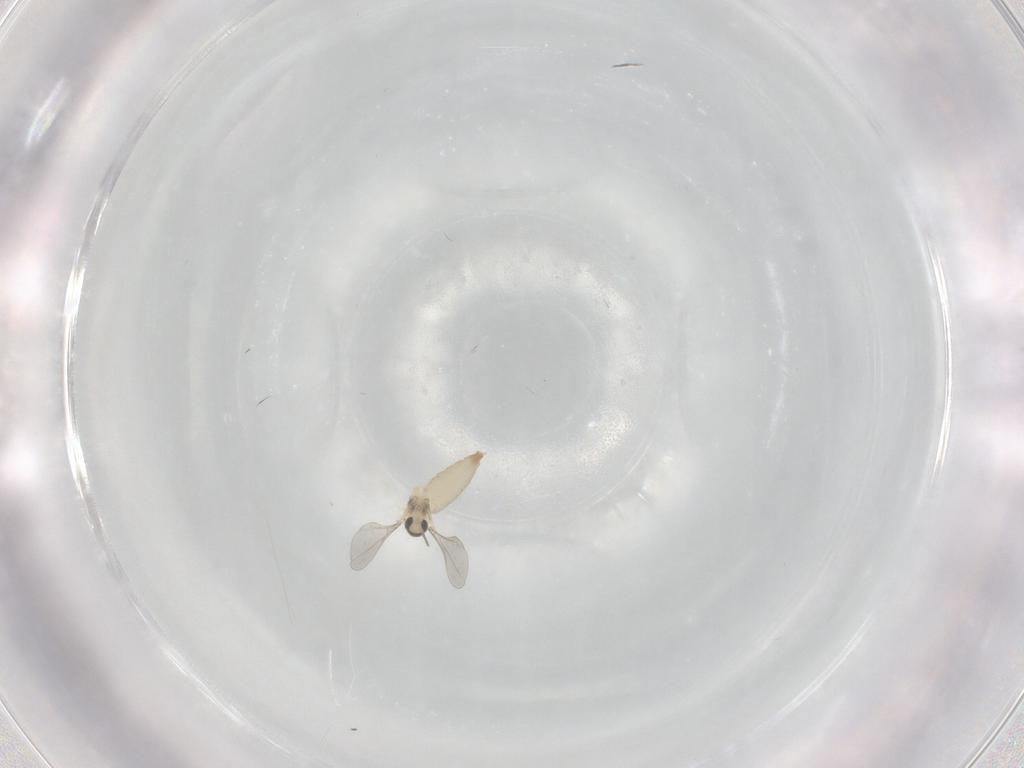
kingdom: Animalia
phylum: Arthropoda
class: Insecta
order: Diptera
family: Cecidomyiidae
